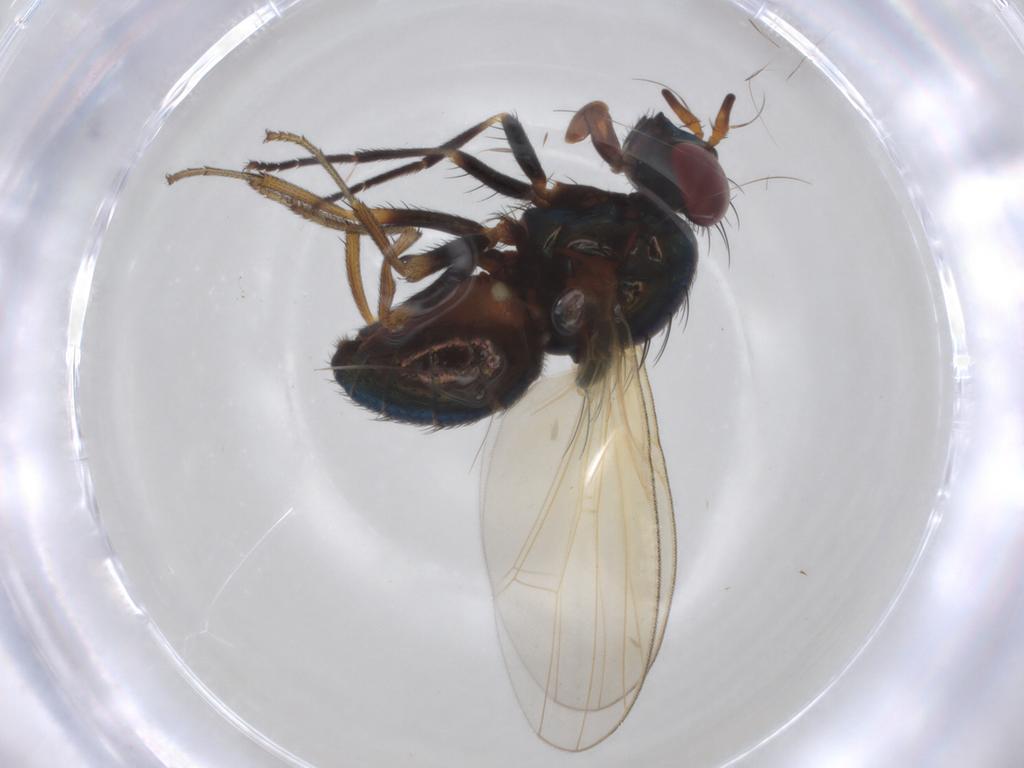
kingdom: Animalia
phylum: Arthropoda
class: Insecta
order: Diptera
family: Lauxaniidae
